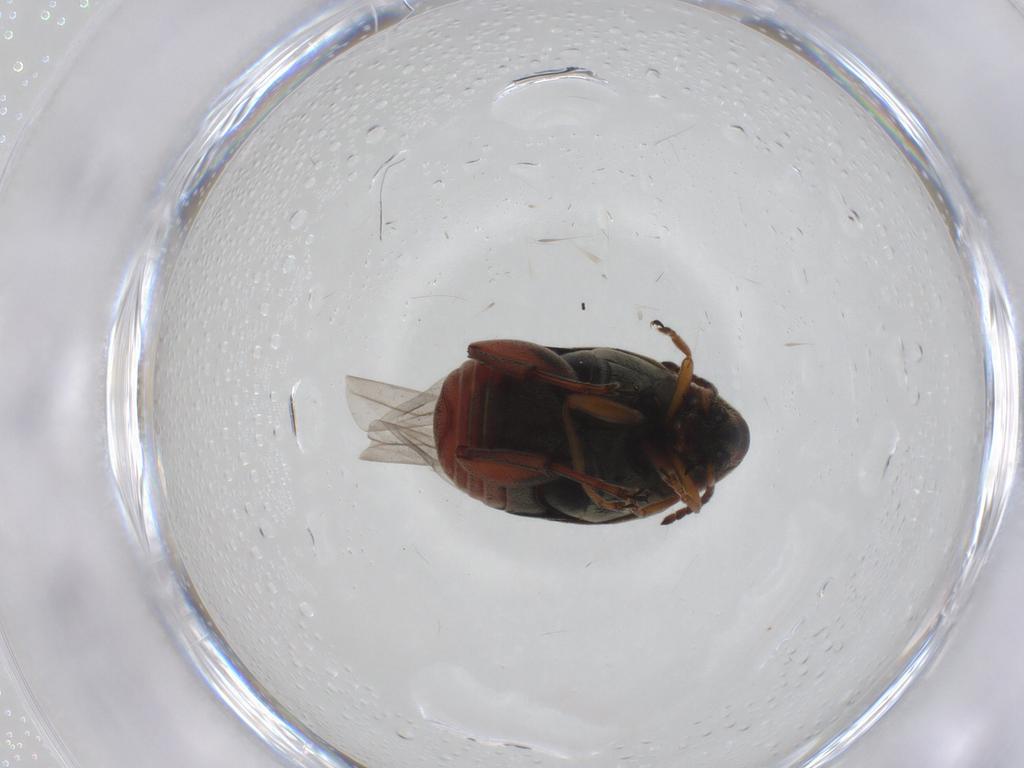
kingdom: Animalia
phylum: Arthropoda
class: Insecta
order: Coleoptera
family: Chrysomelidae
